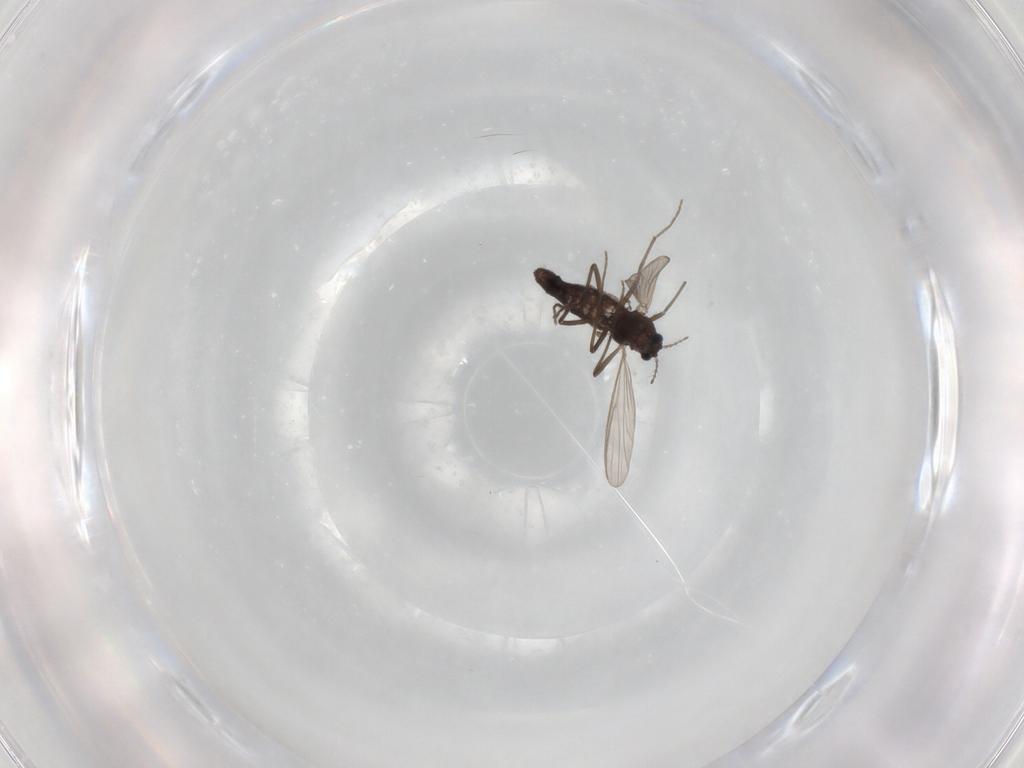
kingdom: Animalia
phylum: Arthropoda
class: Insecta
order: Diptera
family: Chironomidae
